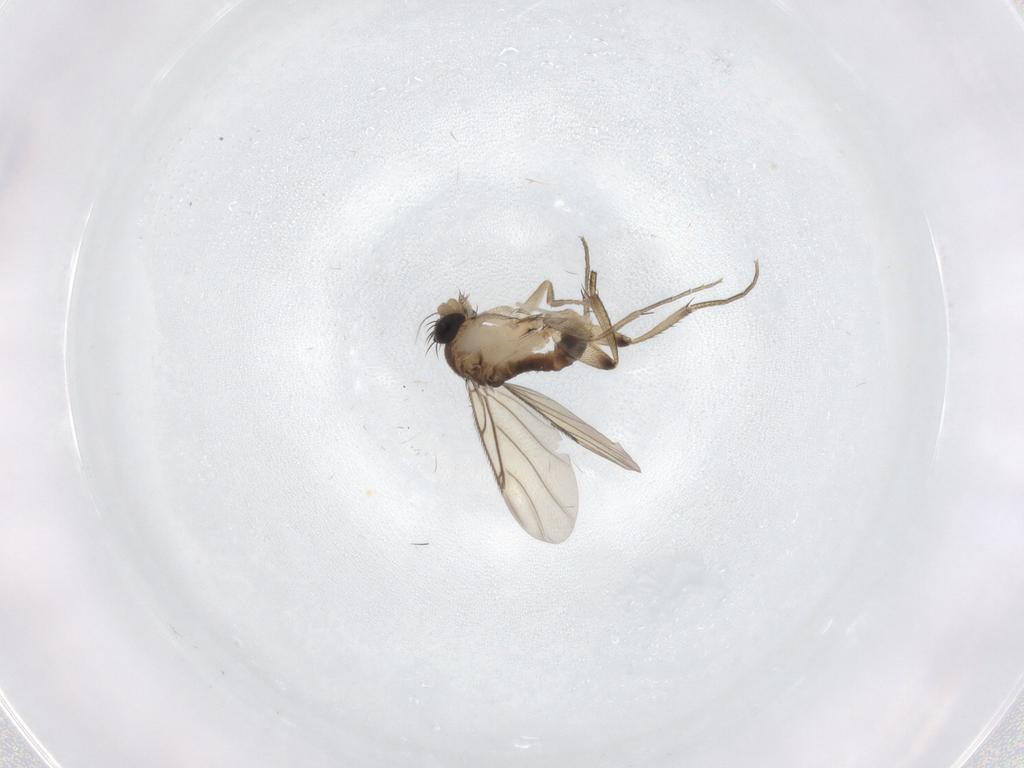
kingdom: Animalia
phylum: Arthropoda
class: Insecta
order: Diptera
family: Phoridae
